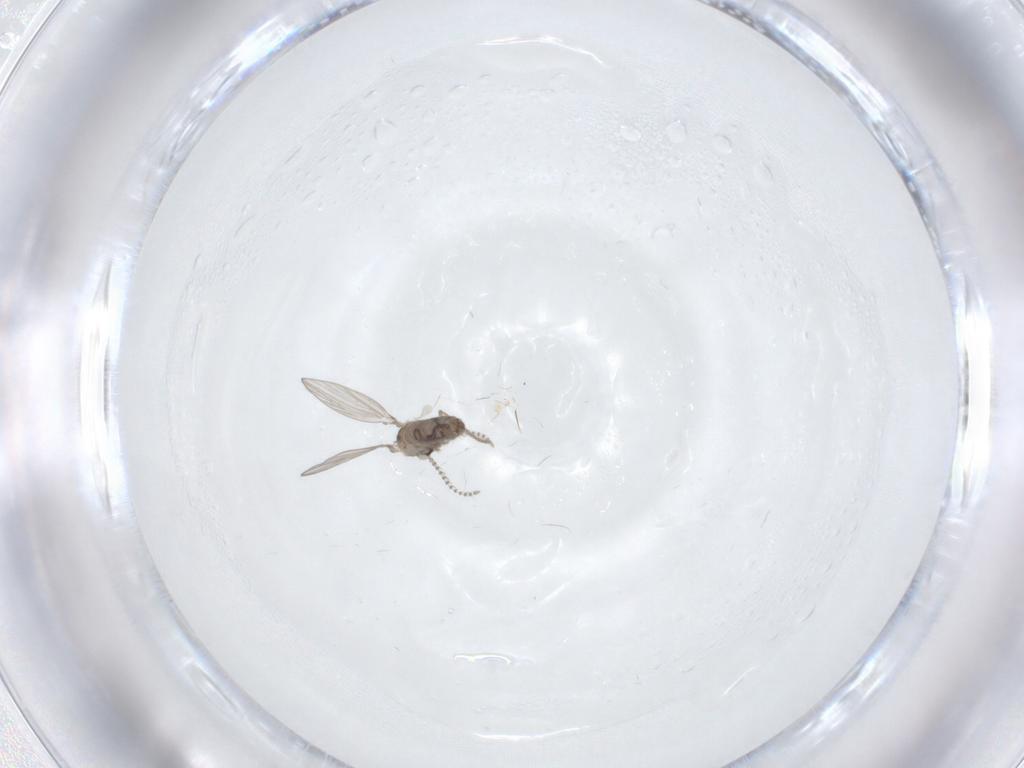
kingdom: Animalia
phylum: Arthropoda
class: Insecta
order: Diptera
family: Psychodidae
